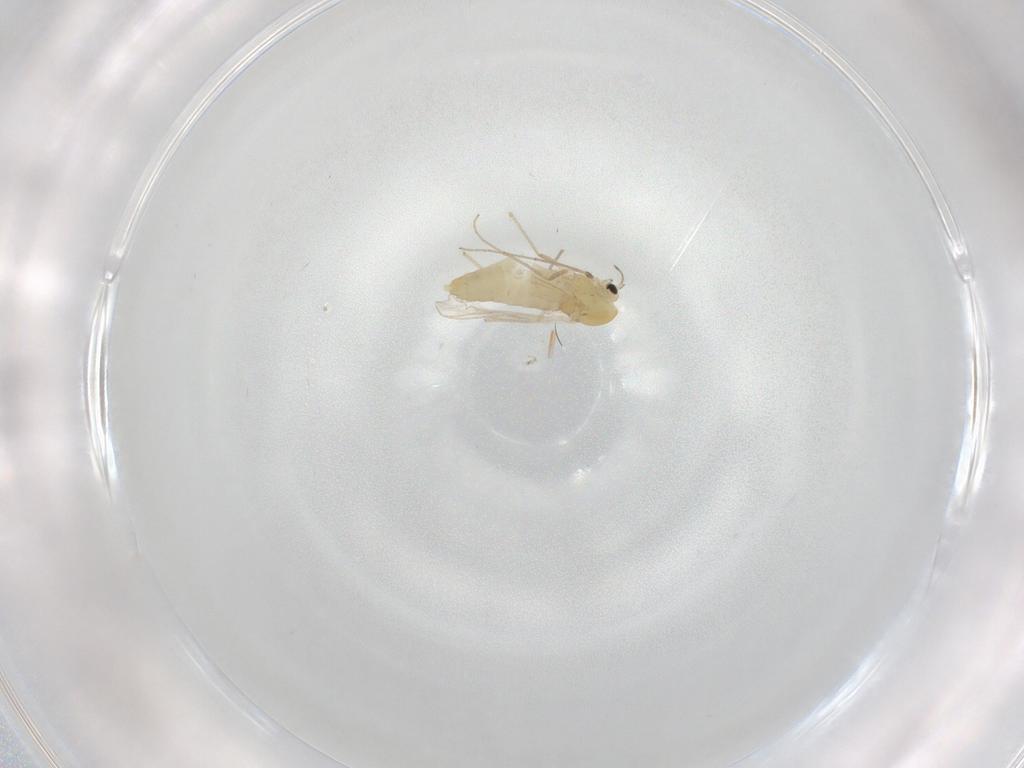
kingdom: Animalia
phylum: Arthropoda
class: Insecta
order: Diptera
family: Chironomidae
